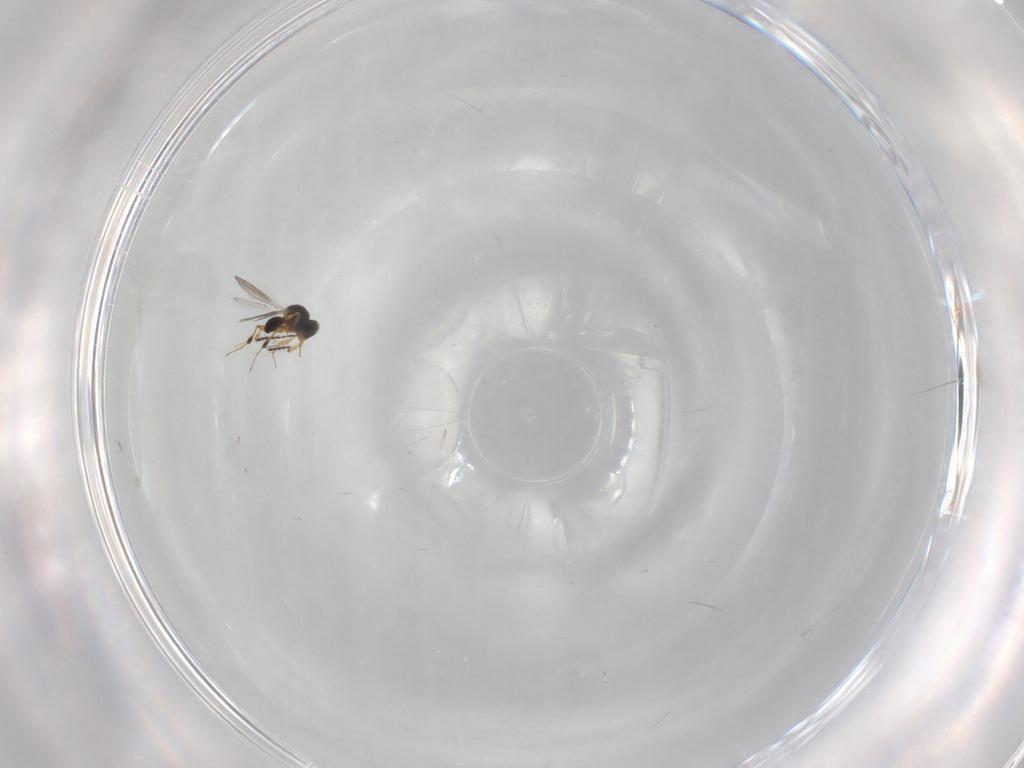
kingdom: Animalia
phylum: Arthropoda
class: Insecta
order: Hymenoptera
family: Platygastridae
